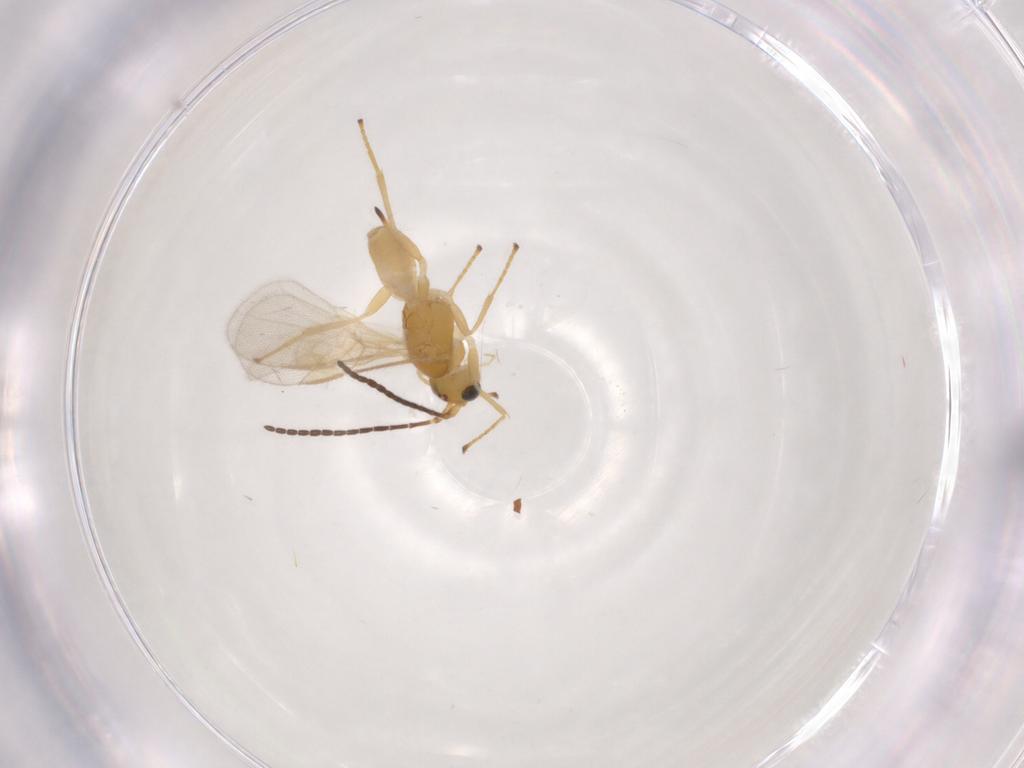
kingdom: Animalia
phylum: Arthropoda
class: Insecta
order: Hymenoptera
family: Braconidae
